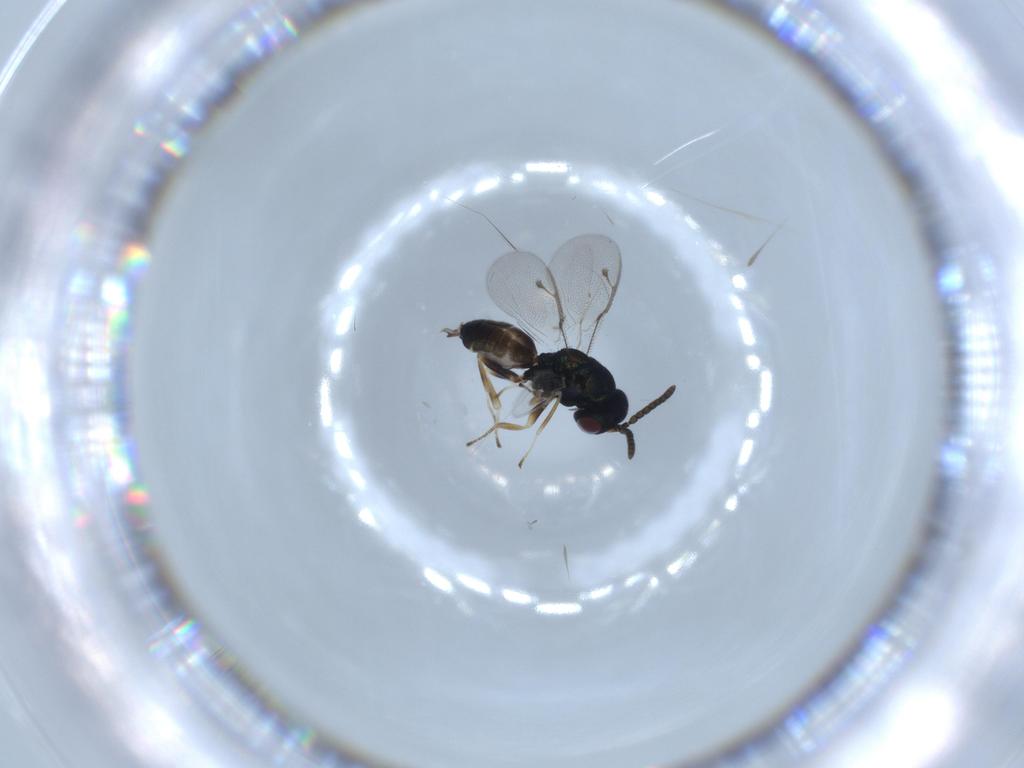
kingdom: Animalia
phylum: Arthropoda
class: Insecta
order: Hymenoptera
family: Pteromalidae
